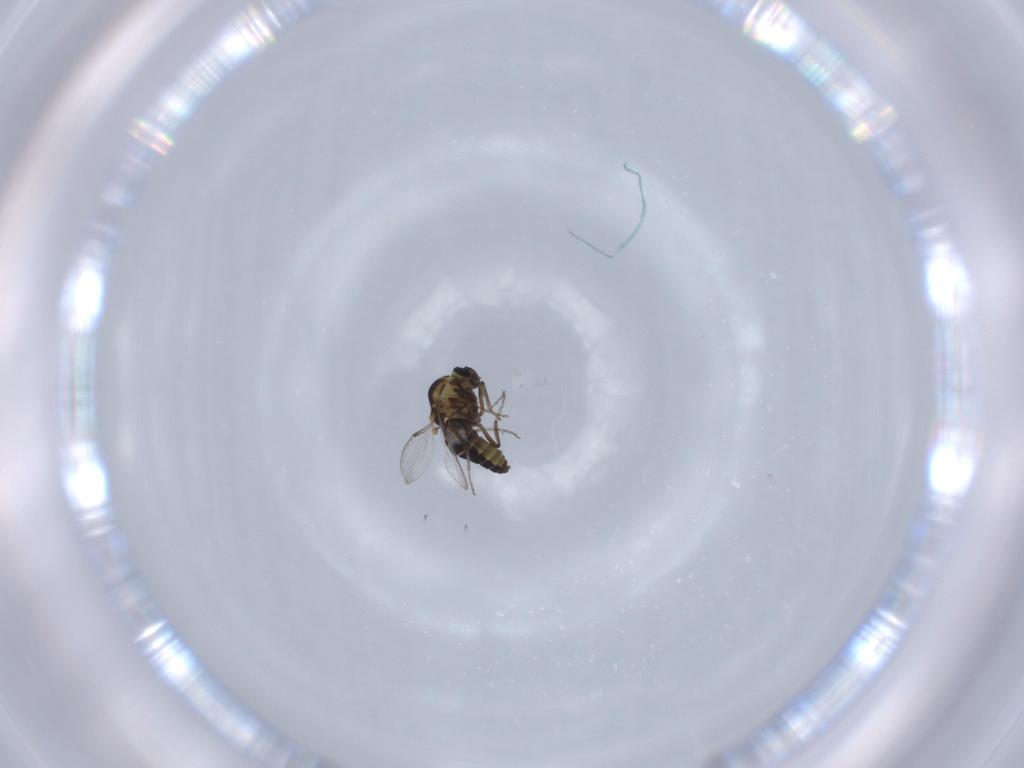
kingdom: Animalia
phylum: Arthropoda
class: Insecta
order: Diptera
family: Ceratopogonidae
